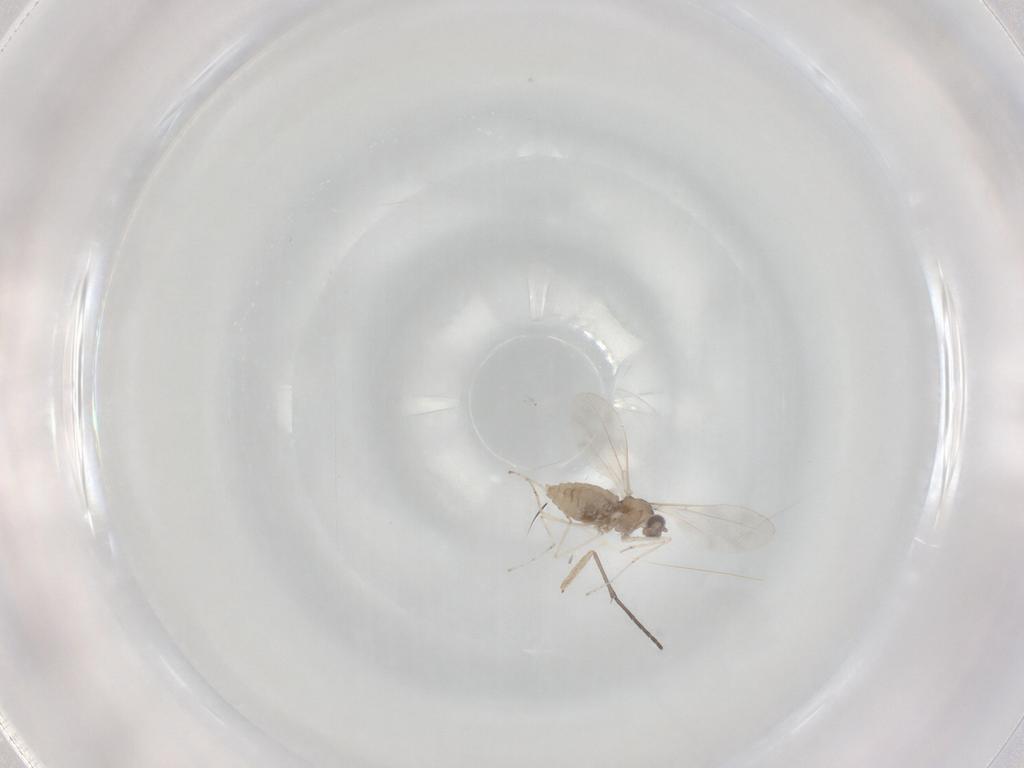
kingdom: Animalia
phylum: Arthropoda
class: Insecta
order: Diptera
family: Cecidomyiidae
